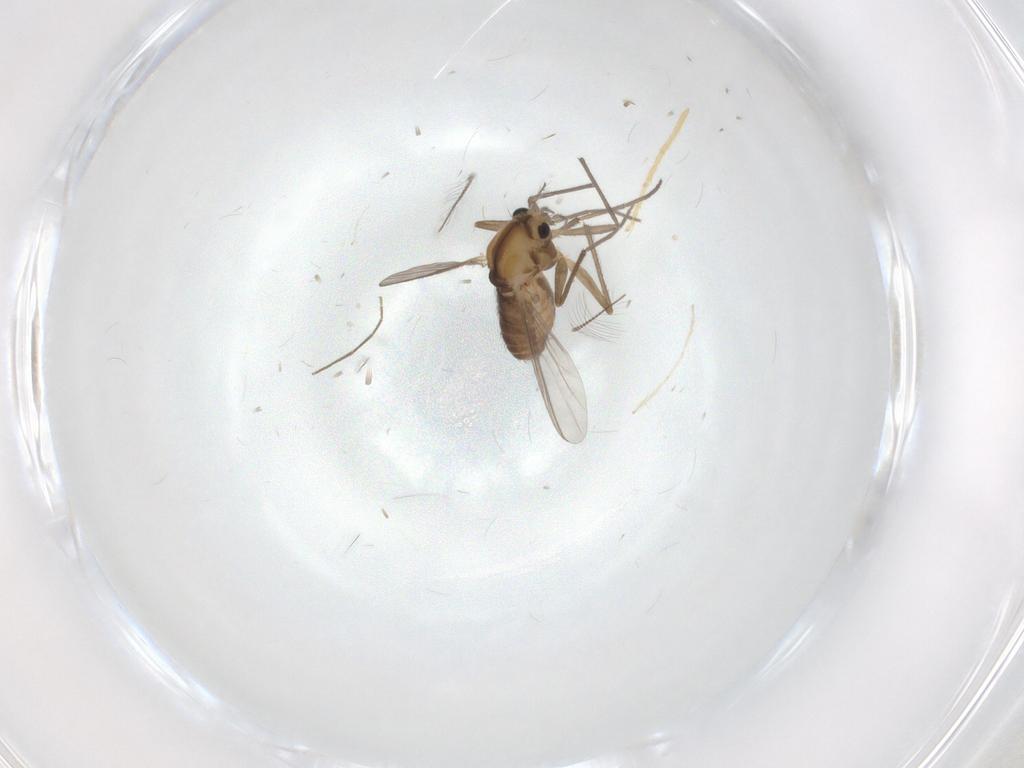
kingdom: Animalia
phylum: Arthropoda
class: Insecta
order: Diptera
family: Chironomidae
